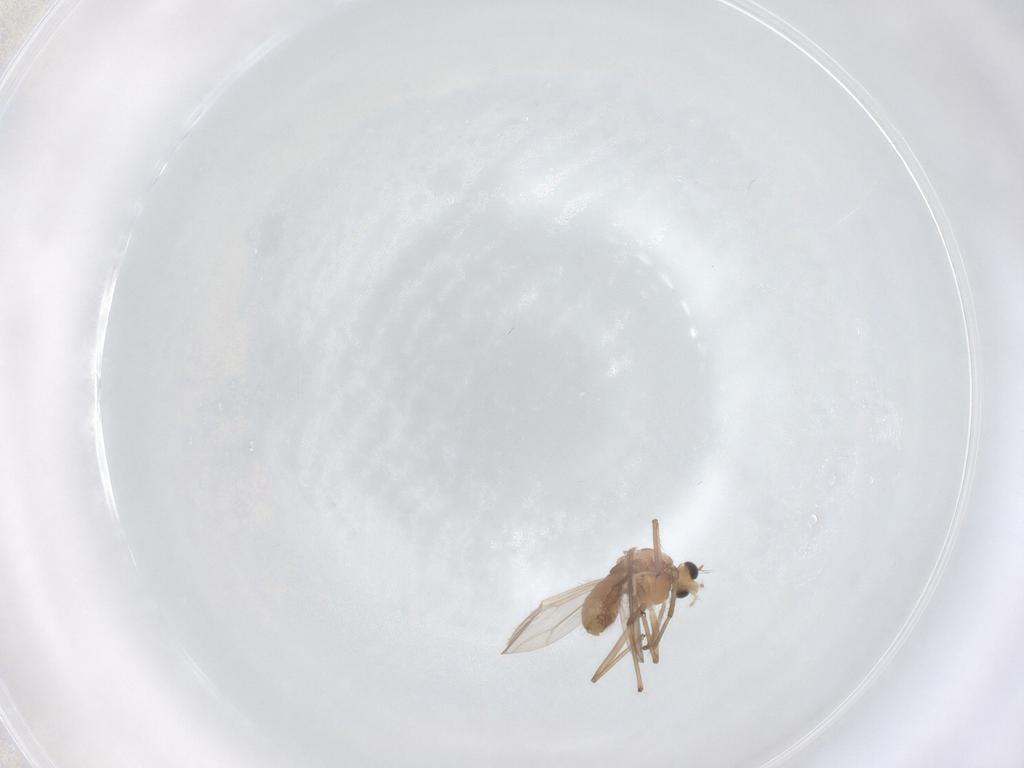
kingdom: Animalia
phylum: Arthropoda
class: Insecta
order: Diptera
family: Chironomidae
